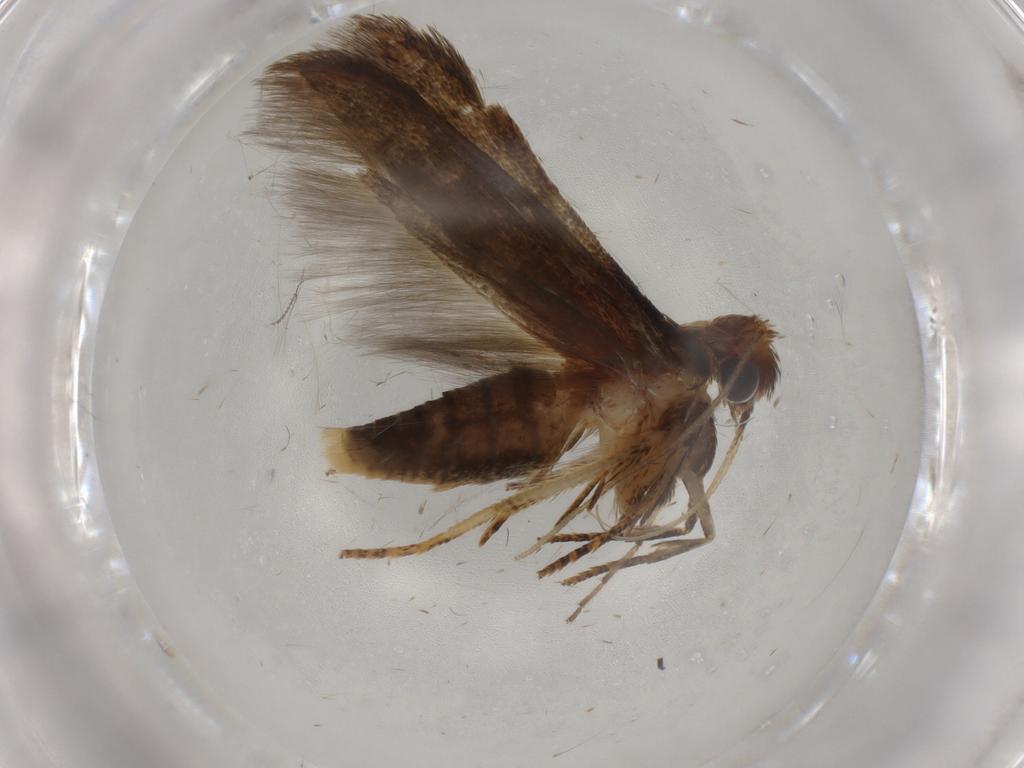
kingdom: Animalia
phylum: Arthropoda
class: Insecta
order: Lepidoptera
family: Blastobasidae
